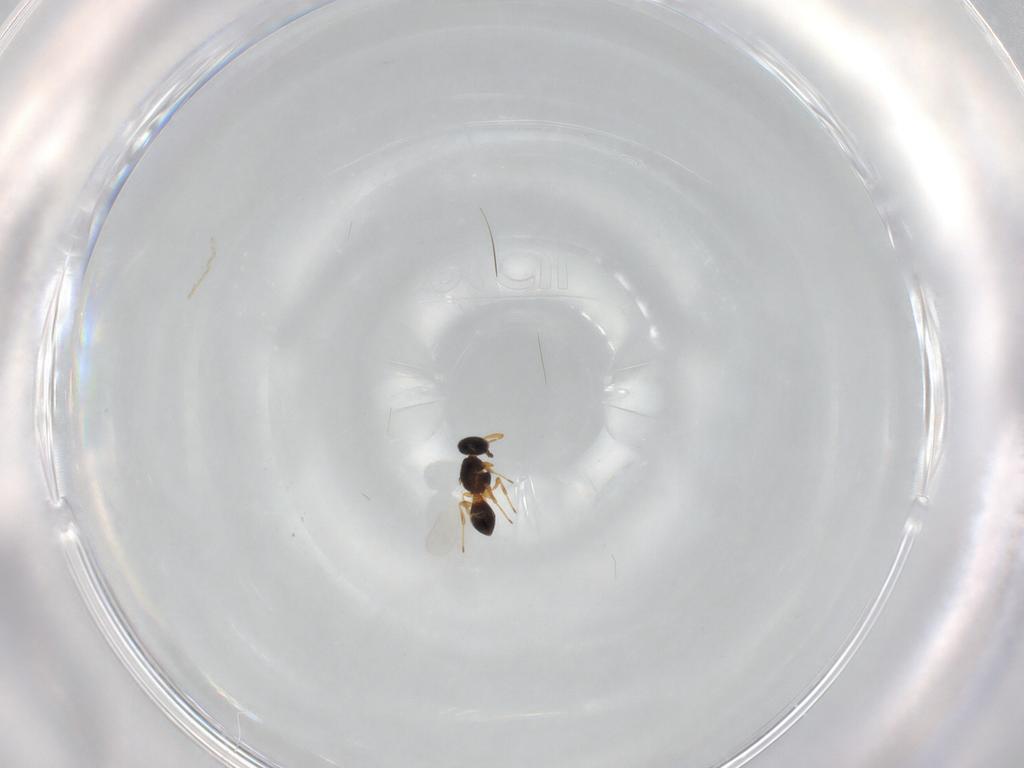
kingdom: Animalia
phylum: Arthropoda
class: Insecta
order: Hymenoptera
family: Platygastridae
